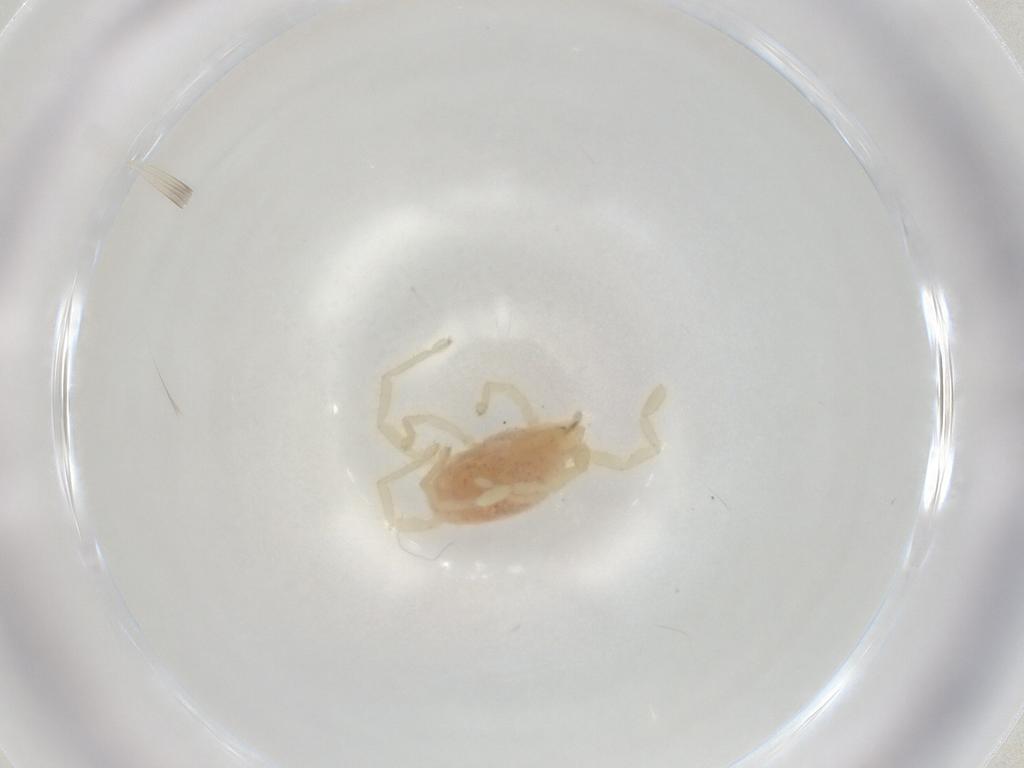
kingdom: Animalia
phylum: Arthropoda
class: Arachnida
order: Trombidiformes
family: Erythraeidae
